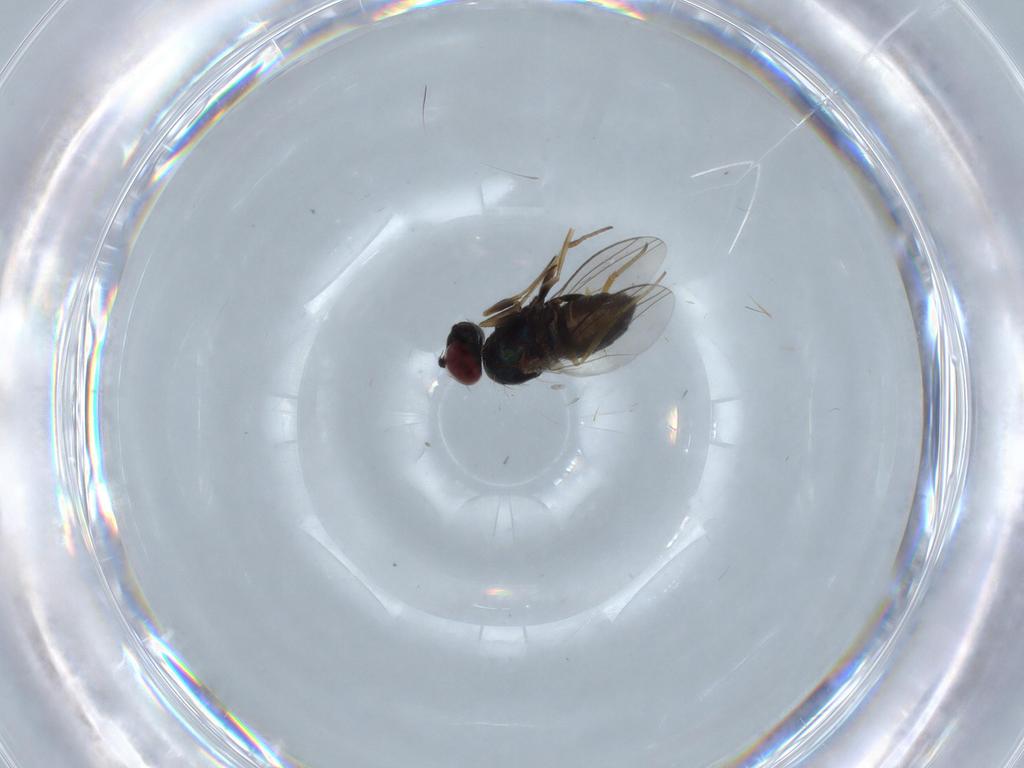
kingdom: Animalia
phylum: Arthropoda
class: Insecta
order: Diptera
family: Dolichopodidae
